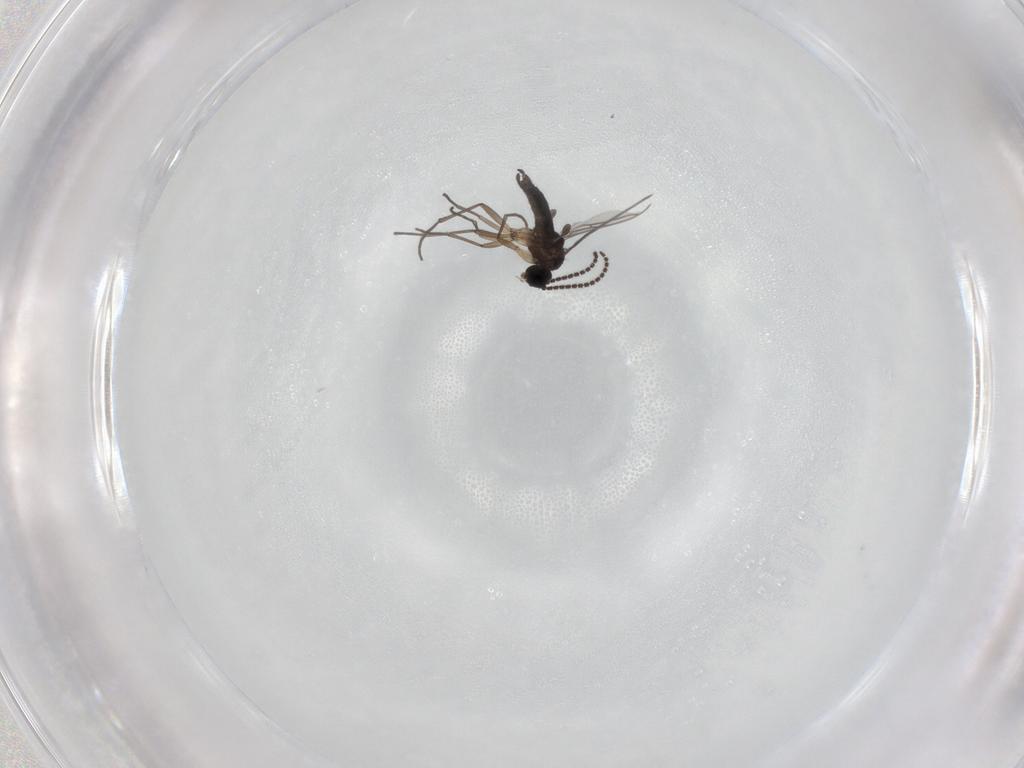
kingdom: Animalia
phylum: Arthropoda
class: Insecta
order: Diptera
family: Sciaridae
